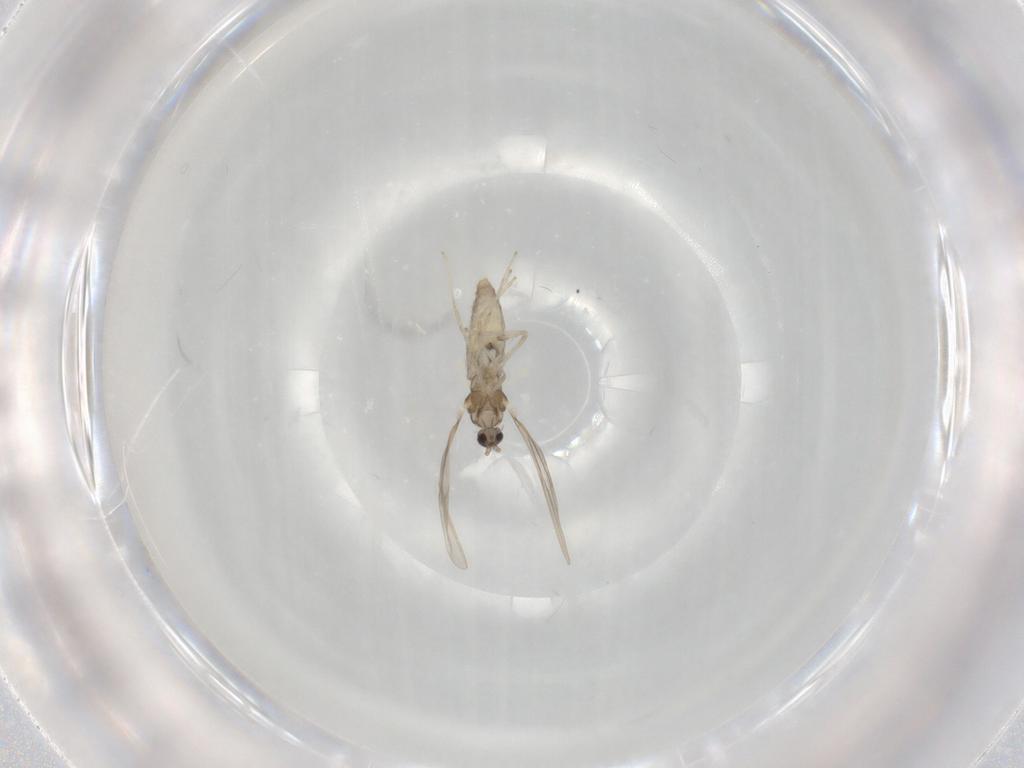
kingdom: Animalia
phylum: Arthropoda
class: Insecta
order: Diptera
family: Cecidomyiidae
